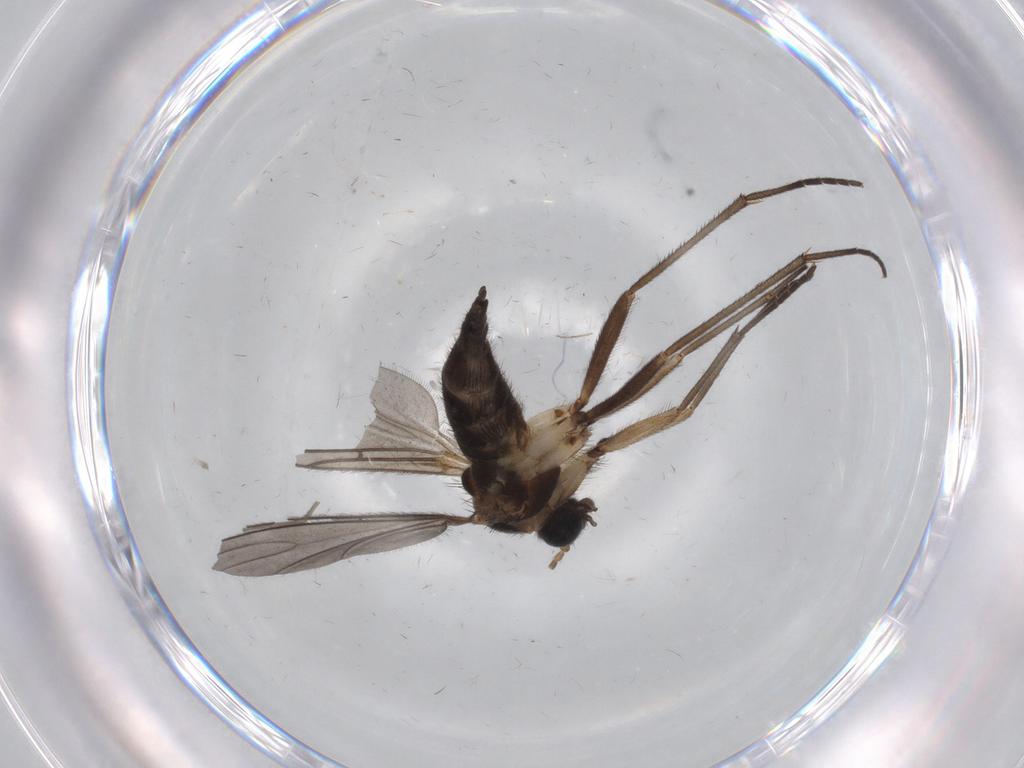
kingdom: Animalia
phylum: Arthropoda
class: Insecta
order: Diptera
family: Sciaridae
